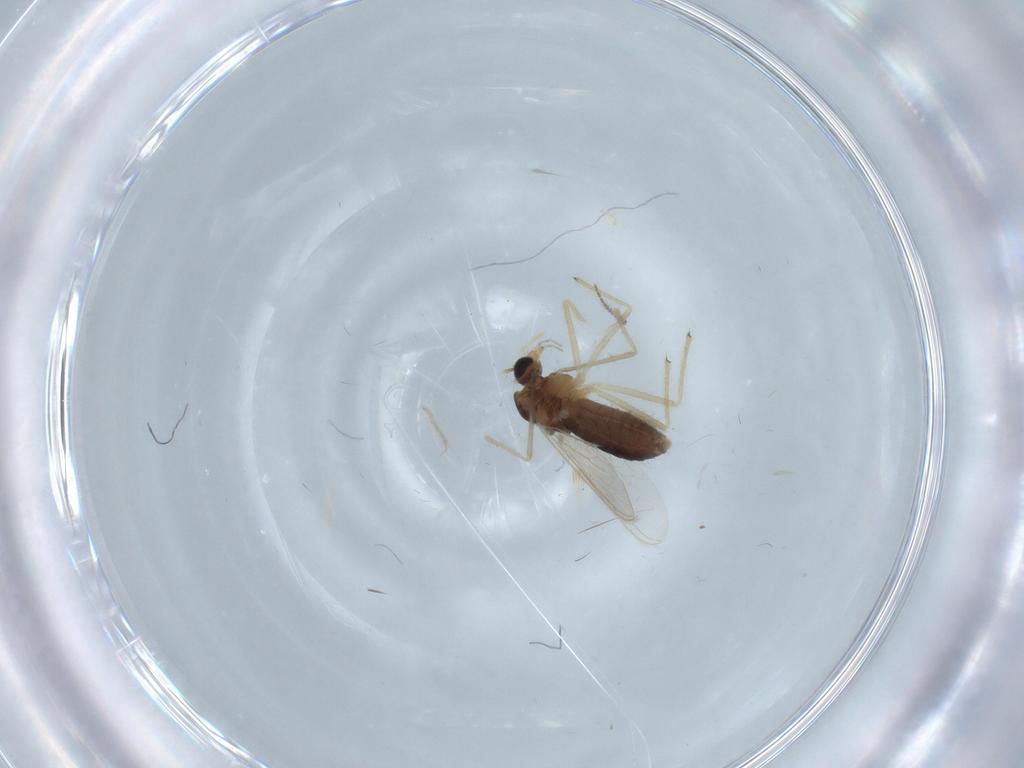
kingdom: Animalia
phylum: Arthropoda
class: Insecta
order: Diptera
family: Chironomidae
